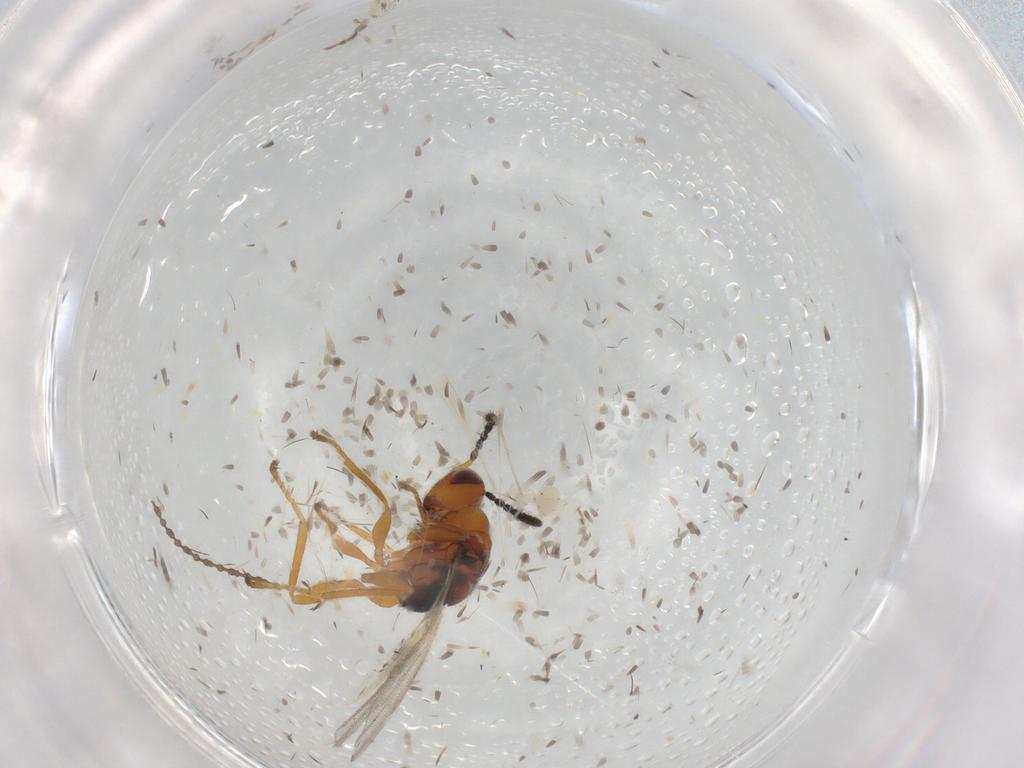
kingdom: Animalia
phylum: Arthropoda
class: Insecta
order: Hymenoptera
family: Eurytomidae
